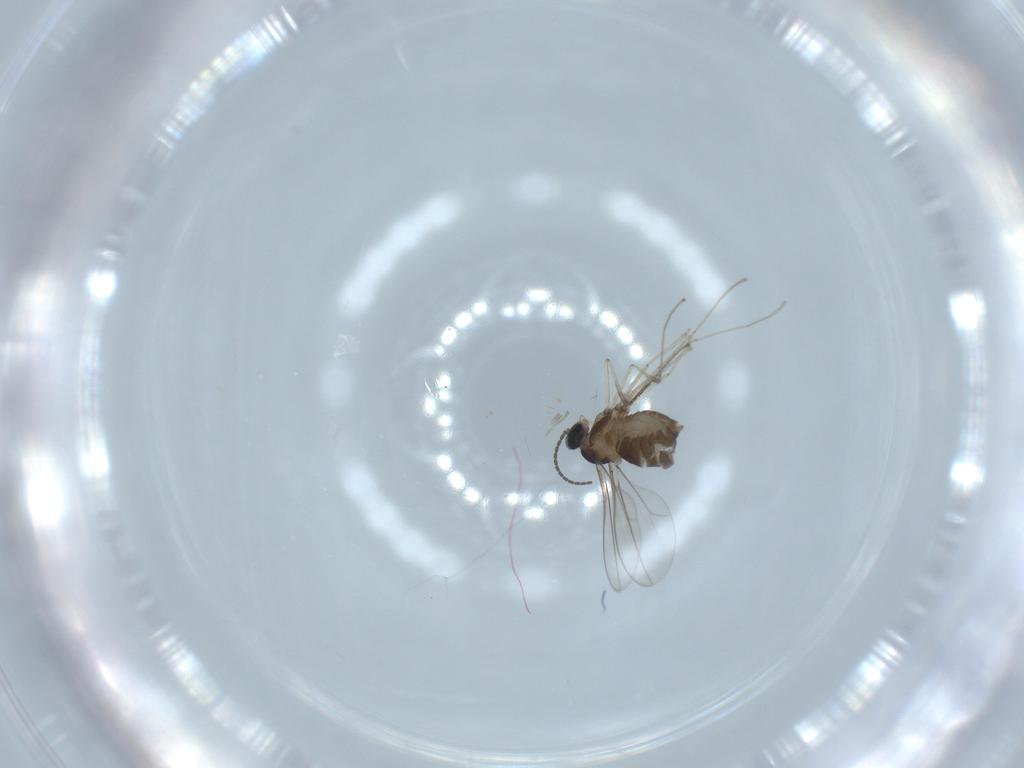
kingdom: Animalia
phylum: Arthropoda
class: Insecta
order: Diptera
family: Cecidomyiidae
